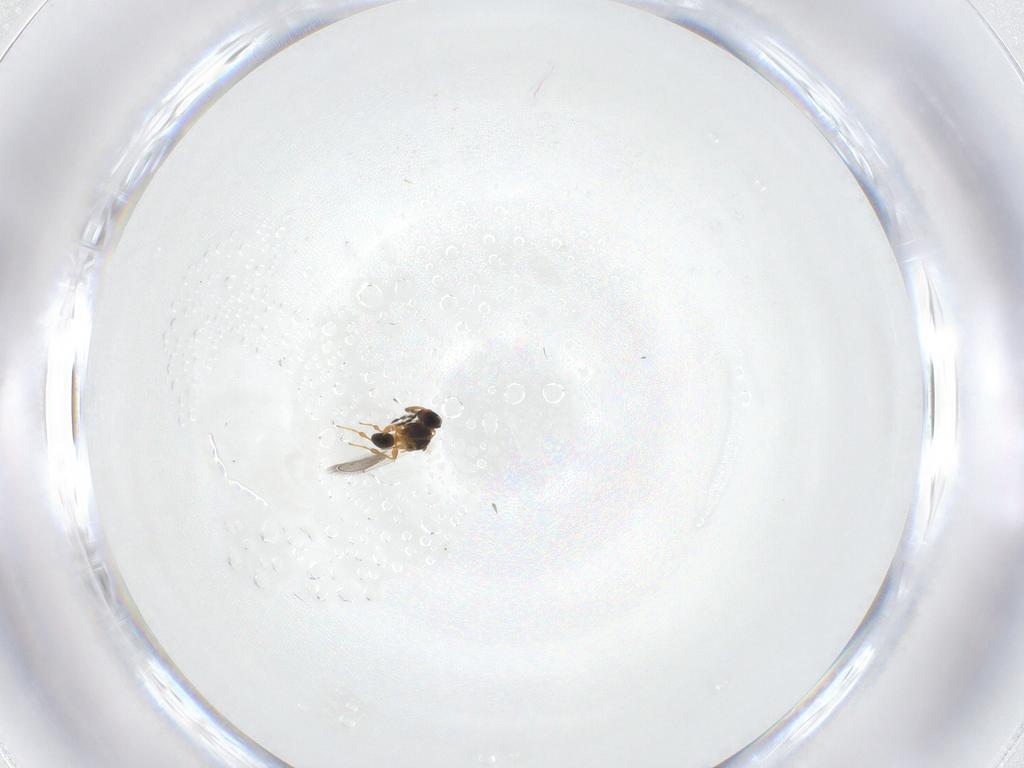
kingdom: Animalia
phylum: Arthropoda
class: Insecta
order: Hymenoptera
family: Platygastridae
